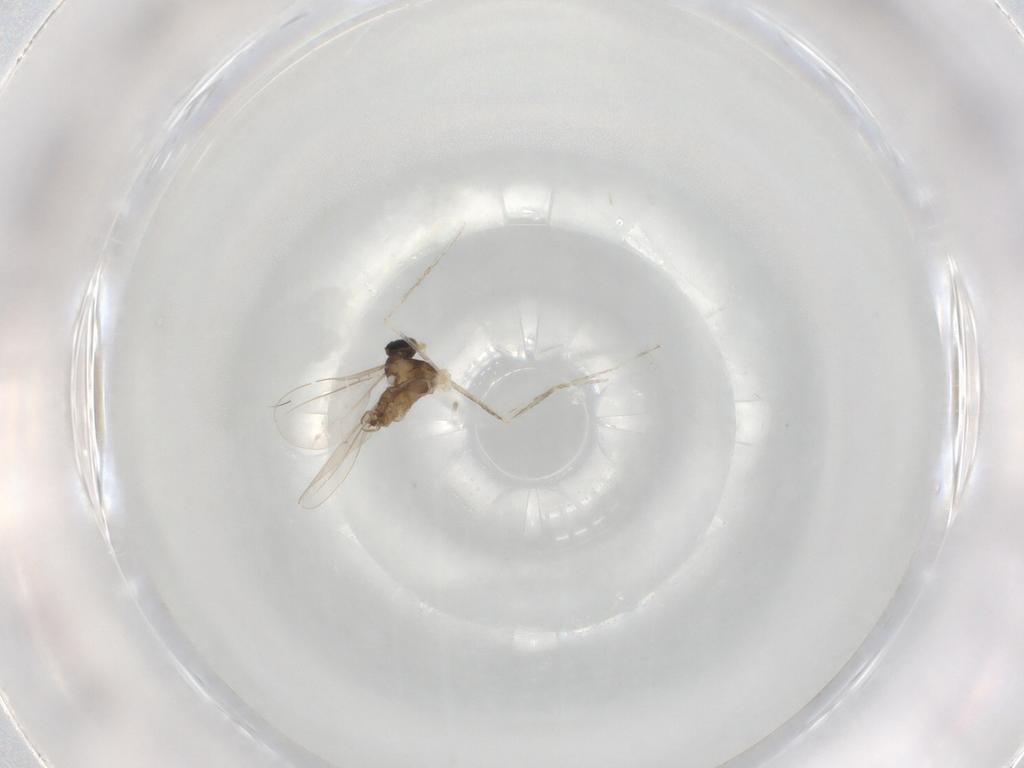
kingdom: Animalia
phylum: Arthropoda
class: Insecta
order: Diptera
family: Cecidomyiidae
